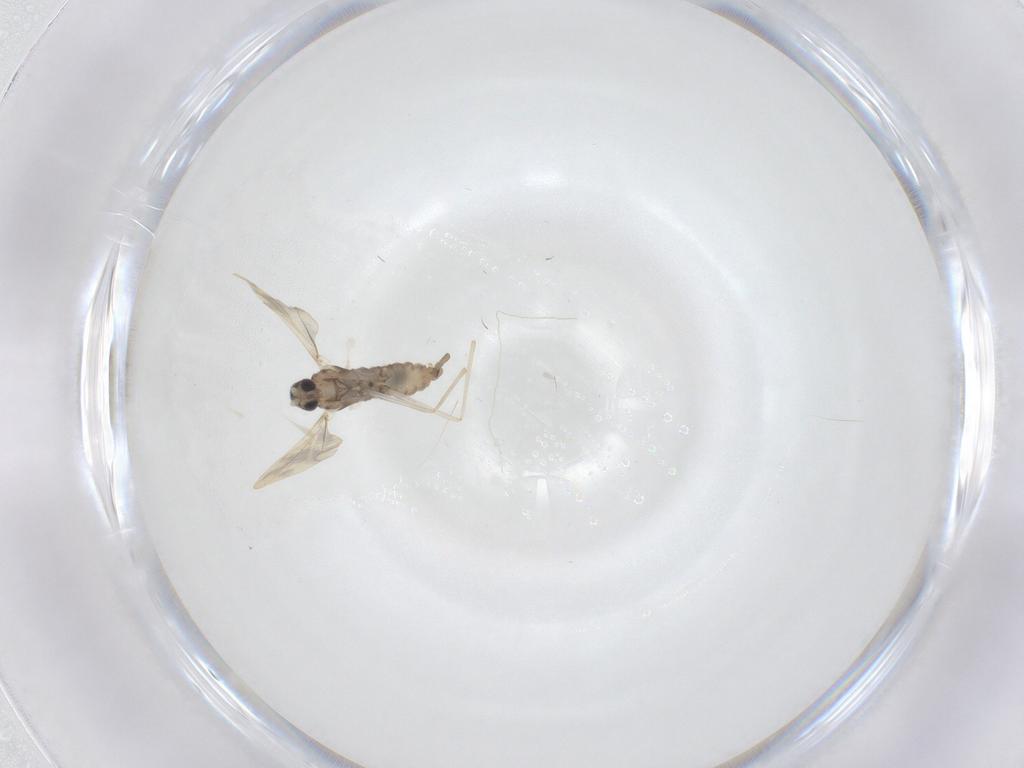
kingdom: Animalia
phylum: Arthropoda
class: Insecta
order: Diptera
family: Cecidomyiidae
